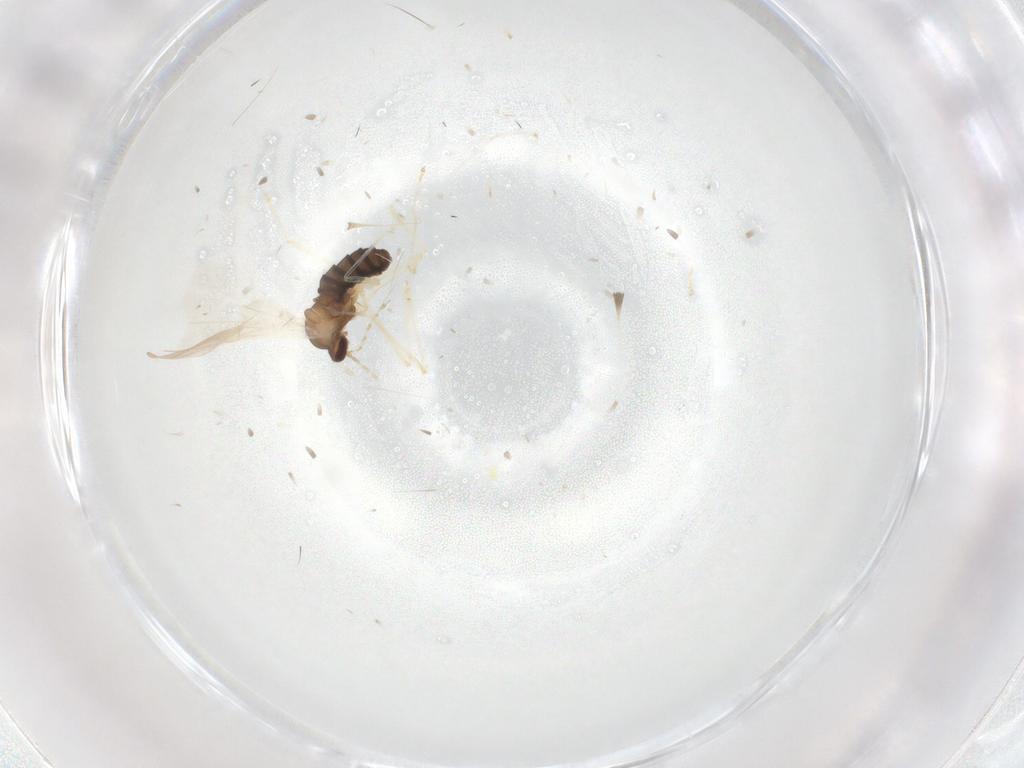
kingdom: Animalia
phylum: Arthropoda
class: Insecta
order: Diptera
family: Cecidomyiidae
